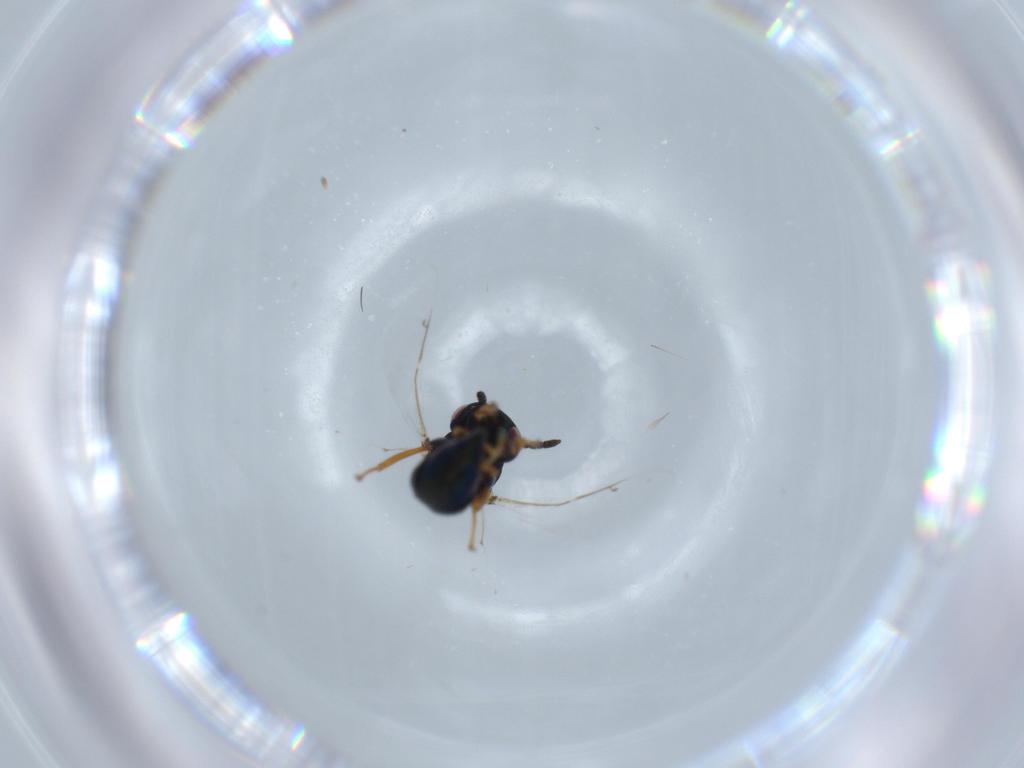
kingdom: Animalia
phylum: Arthropoda
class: Insecta
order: Hymenoptera
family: Pteromalidae
